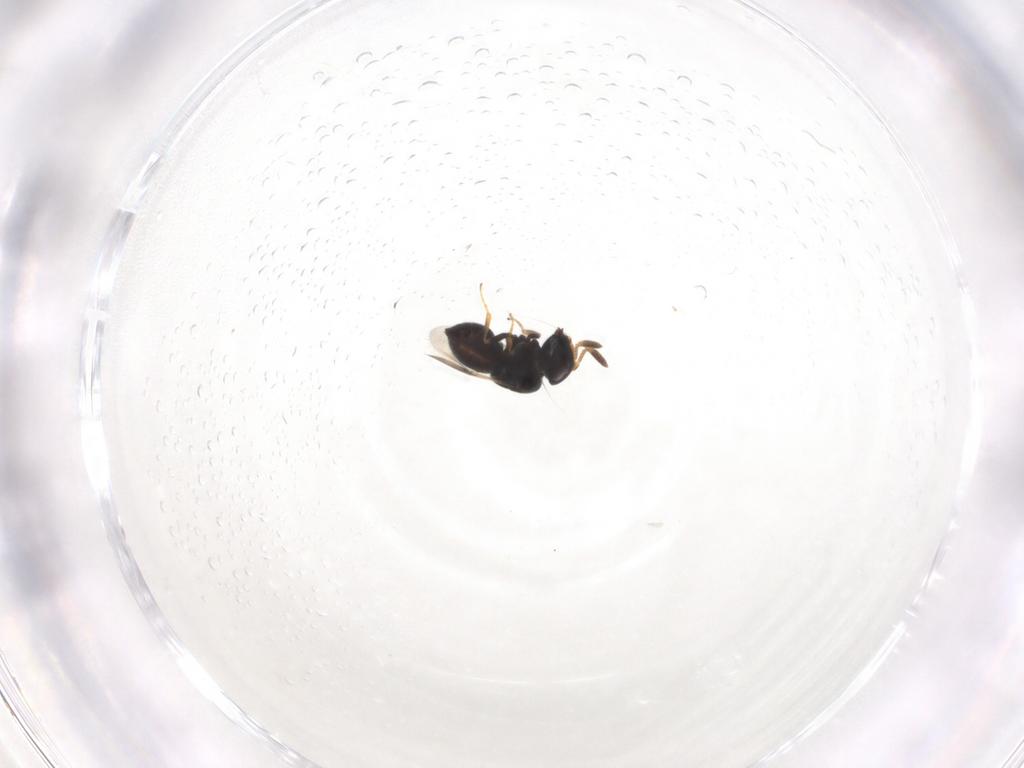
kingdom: Animalia
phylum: Arthropoda
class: Insecta
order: Hymenoptera
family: Scelionidae
